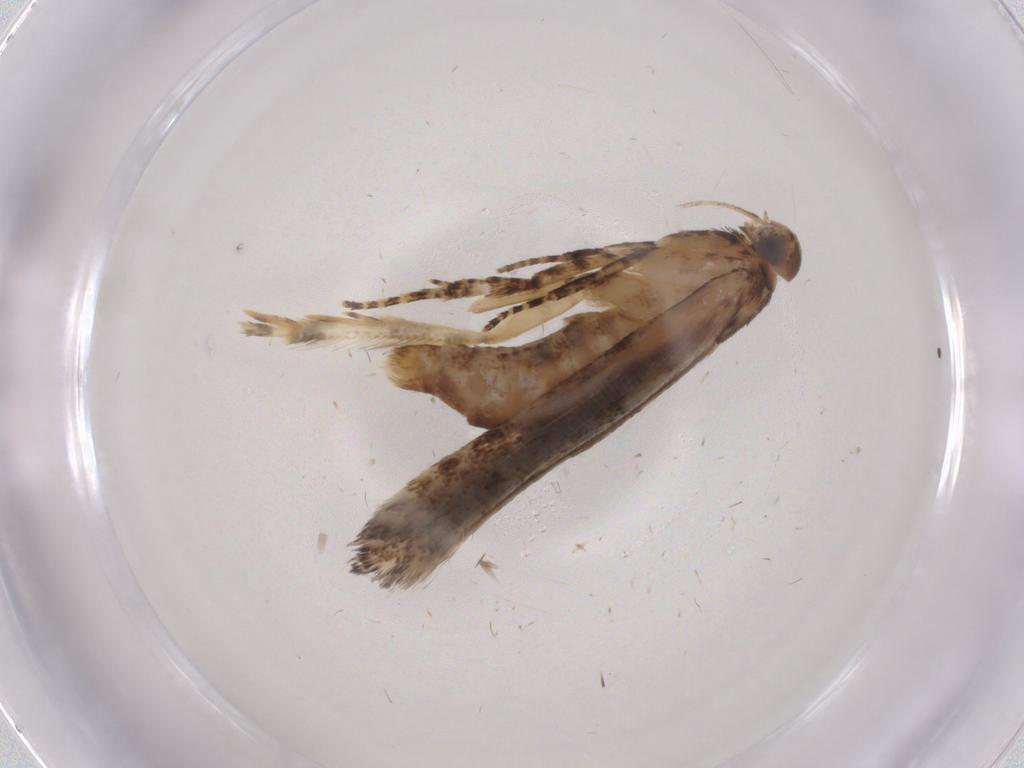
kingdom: Animalia
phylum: Arthropoda
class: Insecta
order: Lepidoptera
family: Gelechiidae
